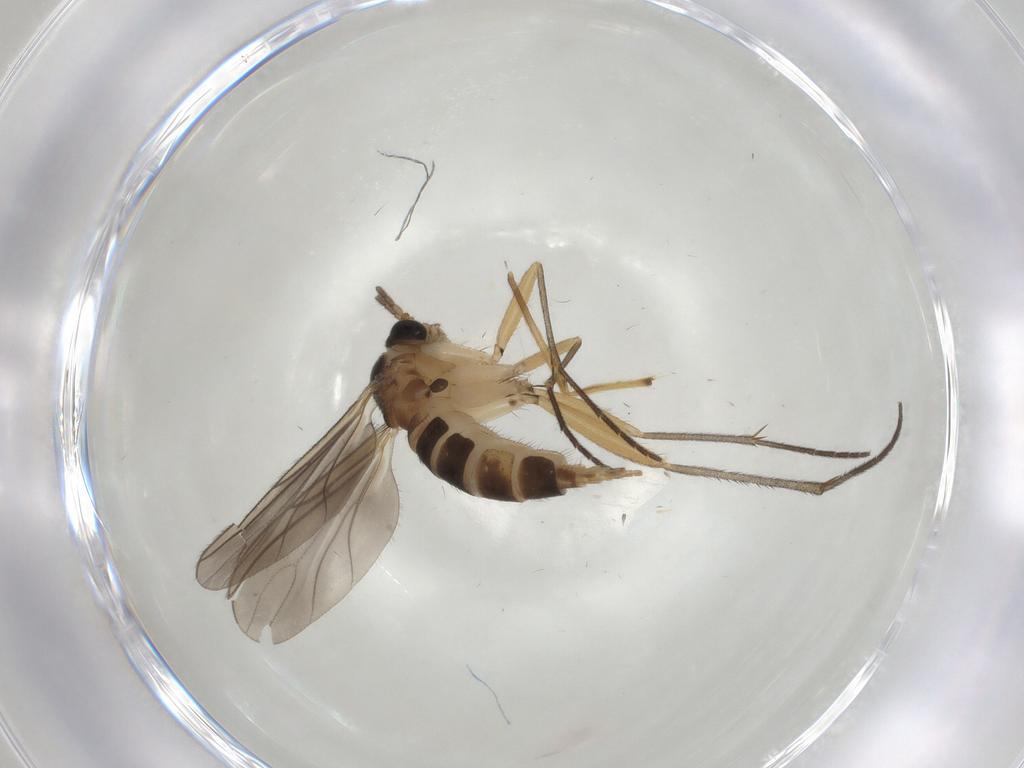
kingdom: Animalia
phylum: Arthropoda
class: Insecta
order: Diptera
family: Sciaridae
